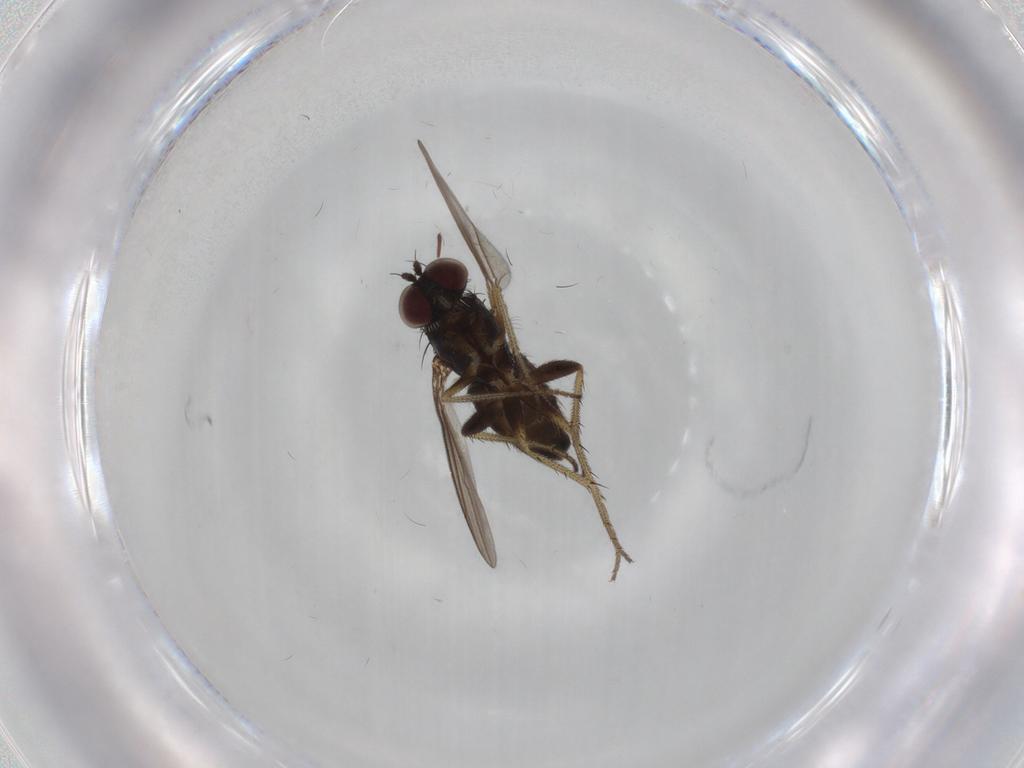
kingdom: Animalia
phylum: Arthropoda
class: Insecta
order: Diptera
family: Dolichopodidae
